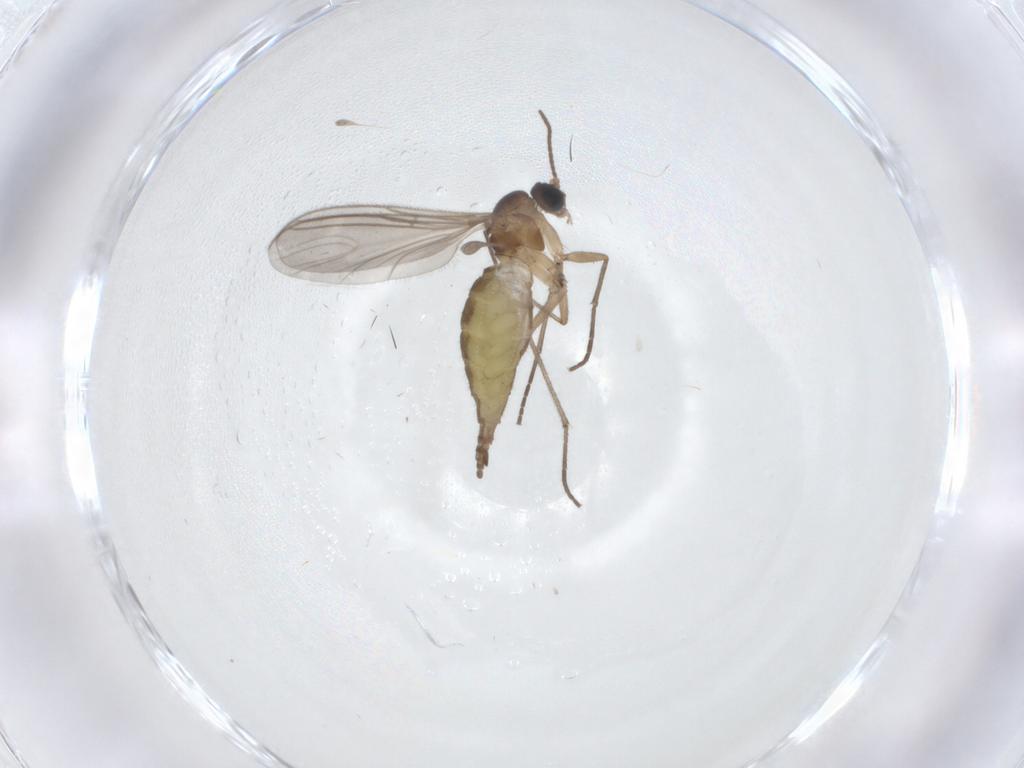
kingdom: Animalia
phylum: Arthropoda
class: Insecta
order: Diptera
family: Sciaridae
